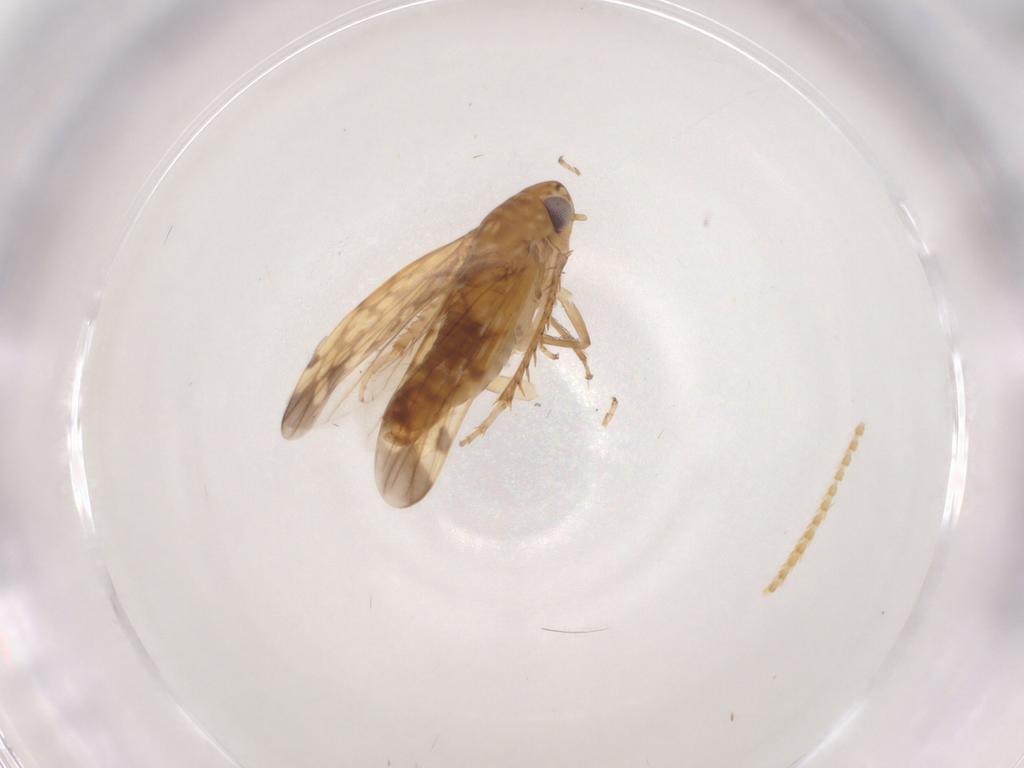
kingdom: Animalia
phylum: Arthropoda
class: Insecta
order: Hemiptera
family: Cicadellidae
